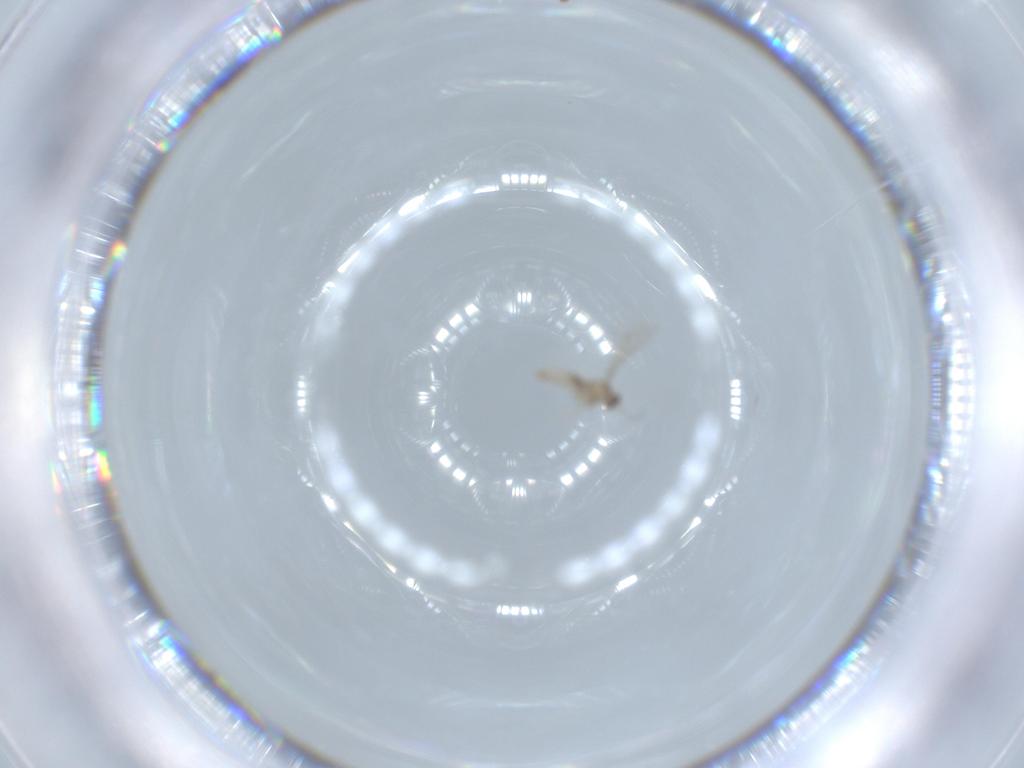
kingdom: Animalia
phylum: Arthropoda
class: Insecta
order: Diptera
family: Cecidomyiidae
